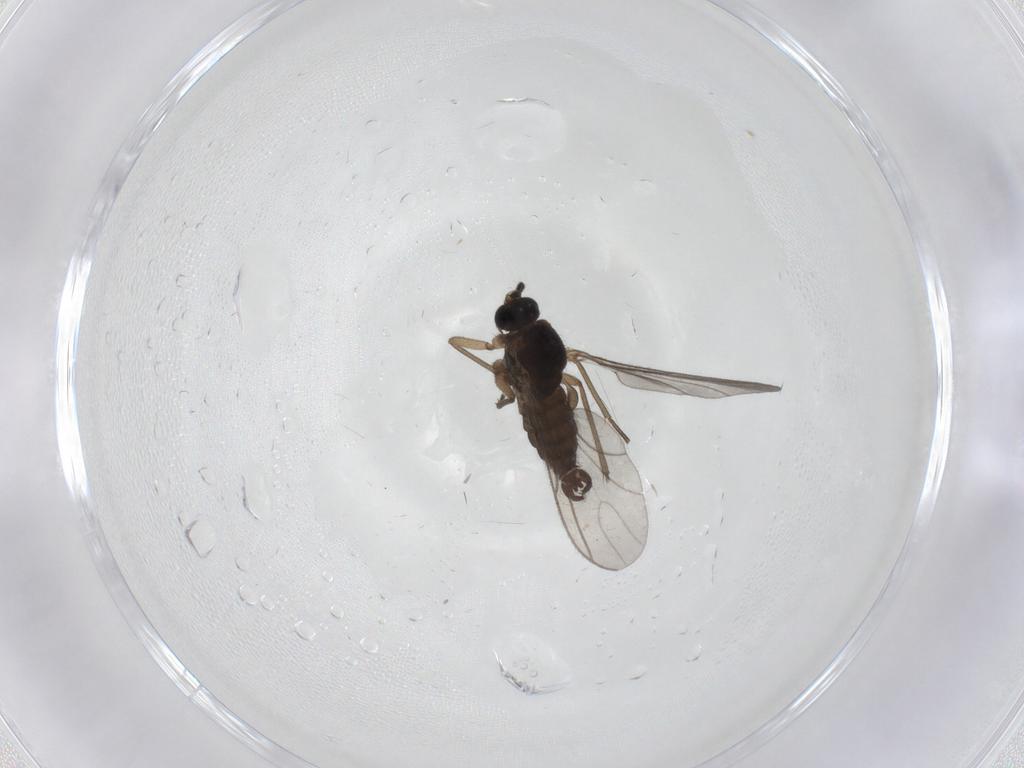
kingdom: Animalia
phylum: Arthropoda
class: Insecta
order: Diptera
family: Sciaridae
